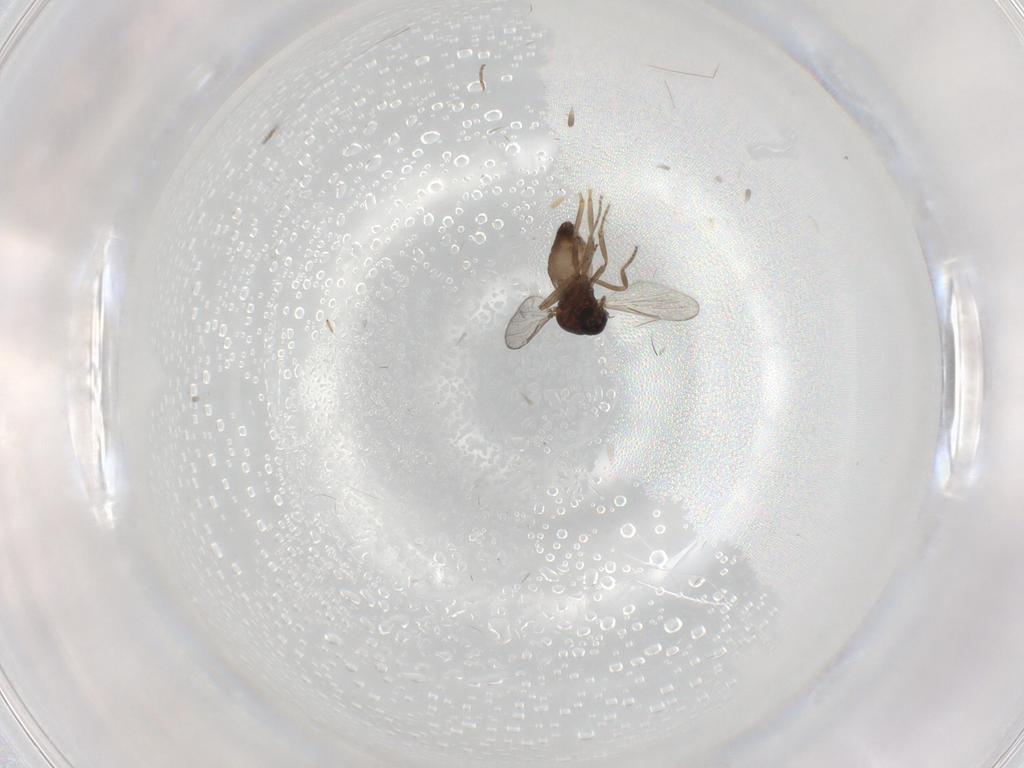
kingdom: Animalia
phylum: Arthropoda
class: Insecta
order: Diptera
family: Ceratopogonidae
